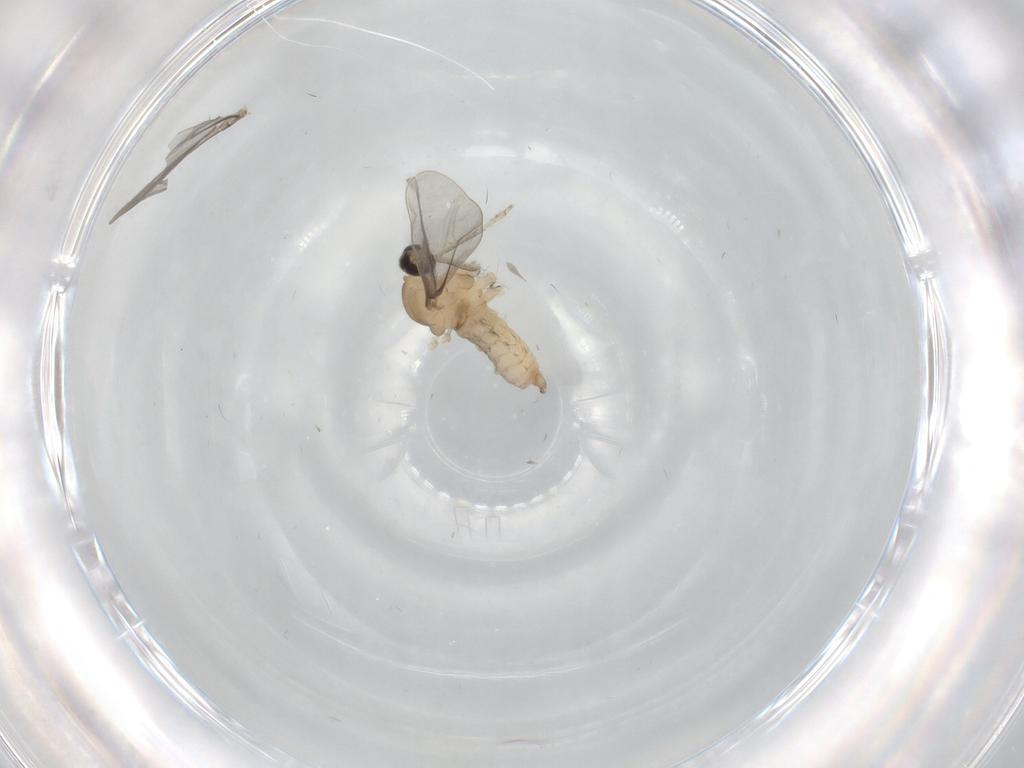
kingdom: Animalia
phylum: Arthropoda
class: Insecta
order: Diptera
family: Cecidomyiidae
